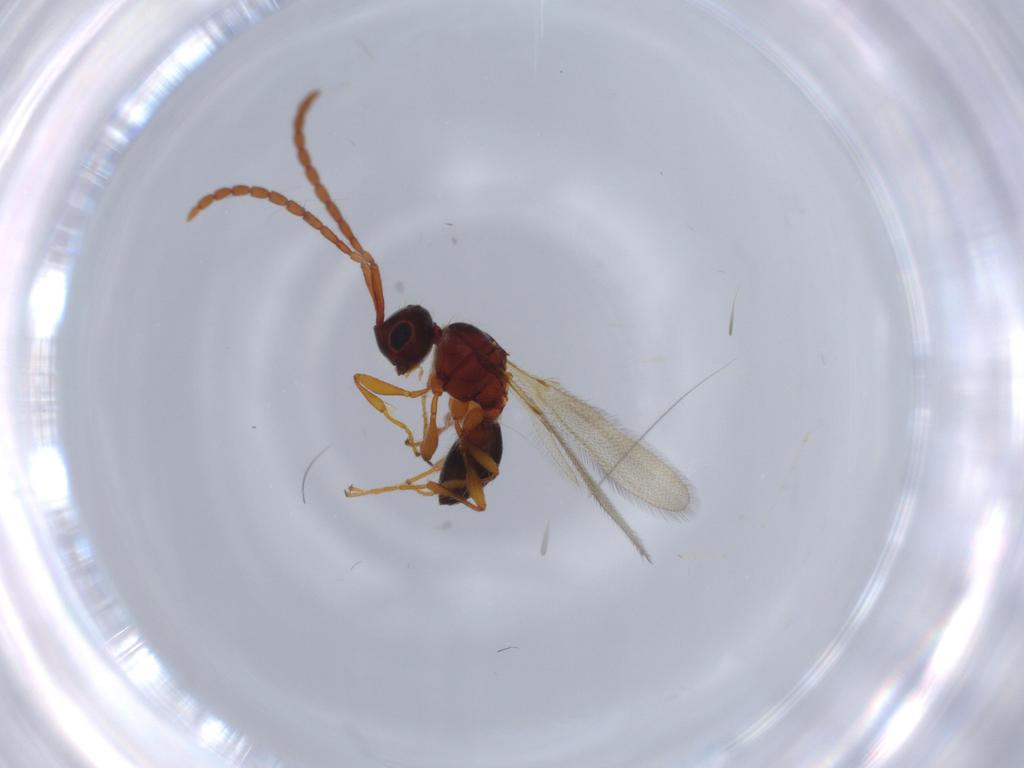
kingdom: Animalia
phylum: Arthropoda
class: Insecta
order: Hymenoptera
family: Diapriidae
